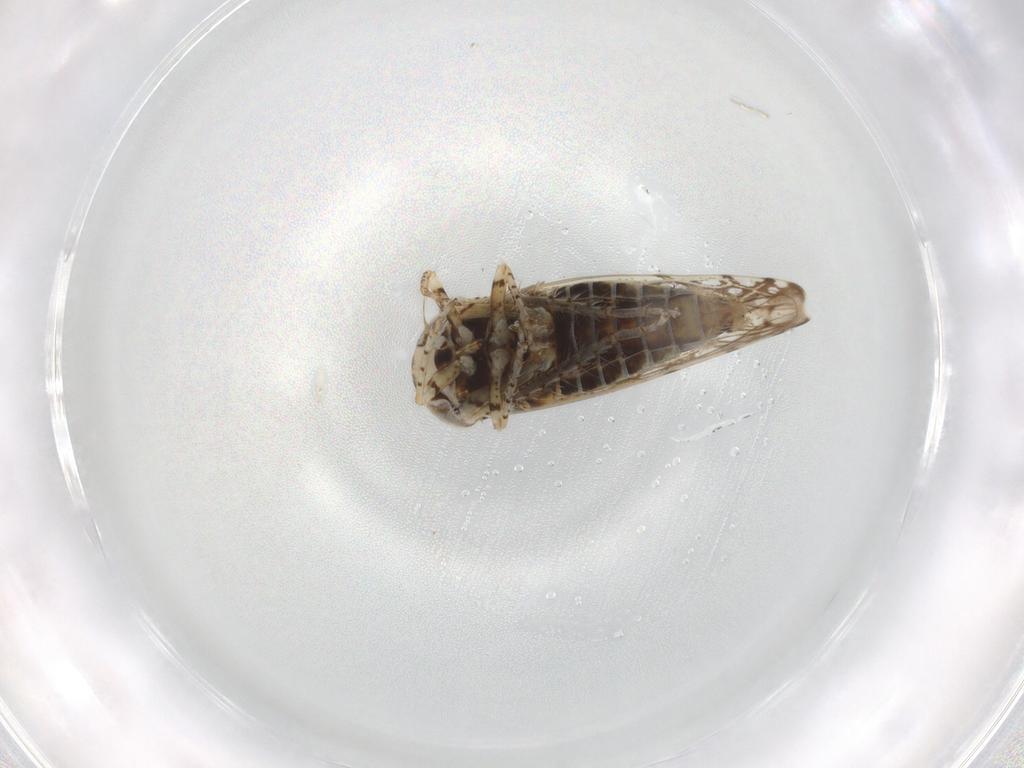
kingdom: Animalia
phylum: Arthropoda
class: Insecta
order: Hemiptera
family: Cicadellidae
